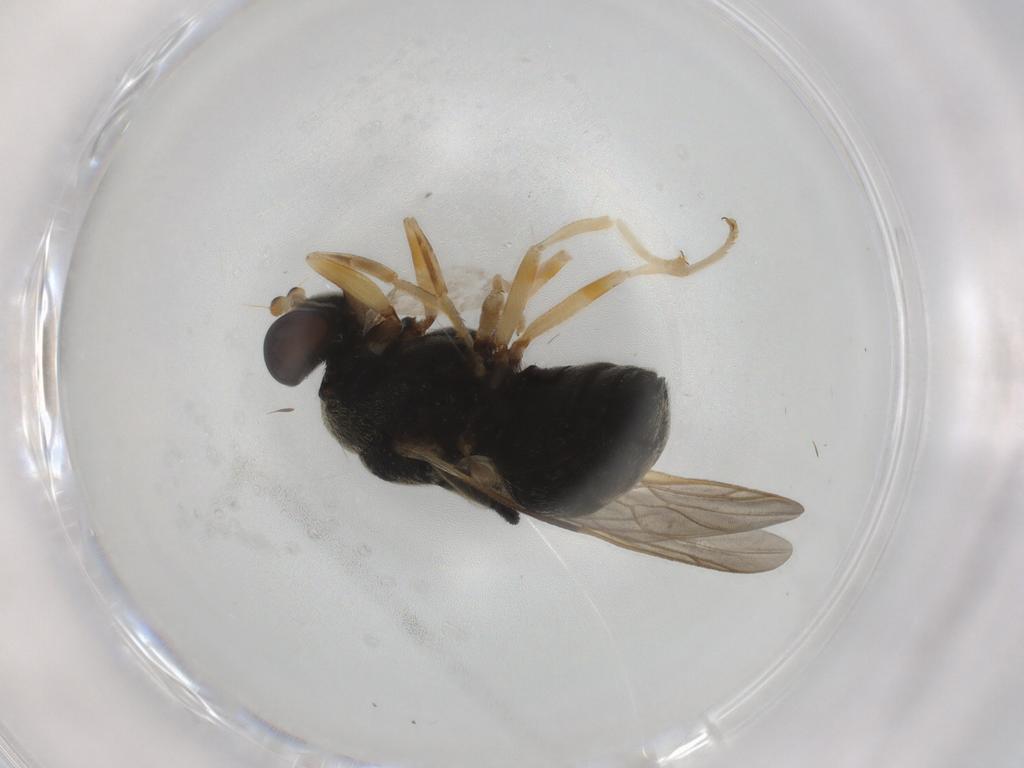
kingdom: Animalia
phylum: Arthropoda
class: Insecta
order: Diptera
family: Stratiomyidae
